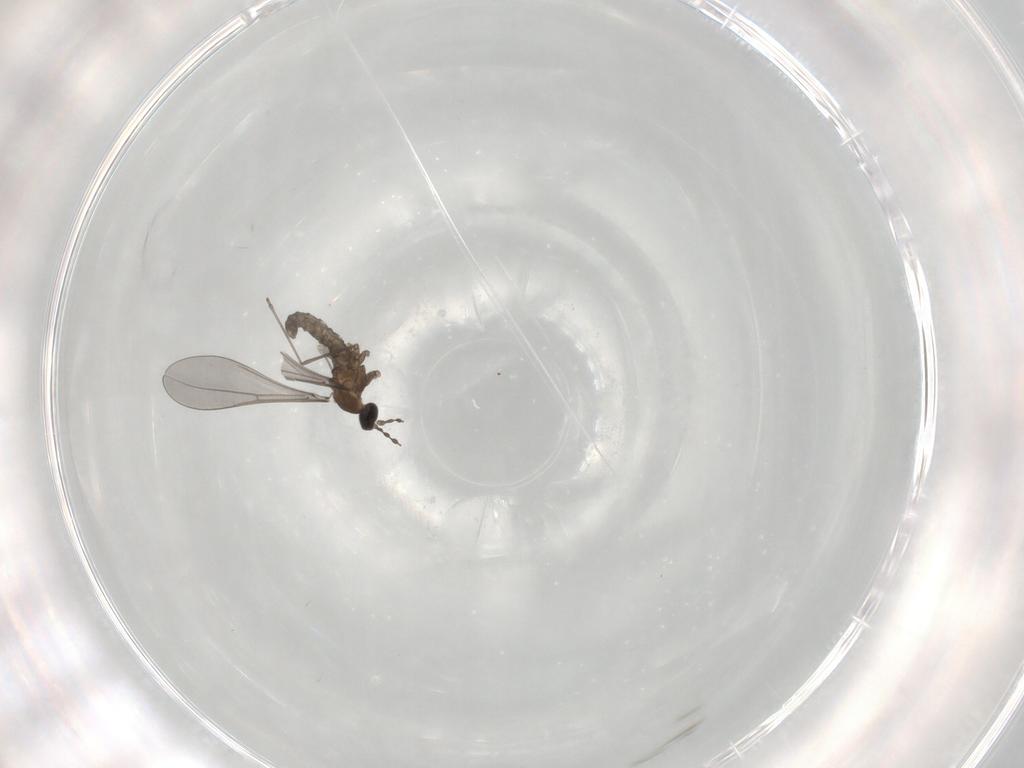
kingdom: Animalia
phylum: Arthropoda
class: Insecta
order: Diptera
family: Cecidomyiidae
